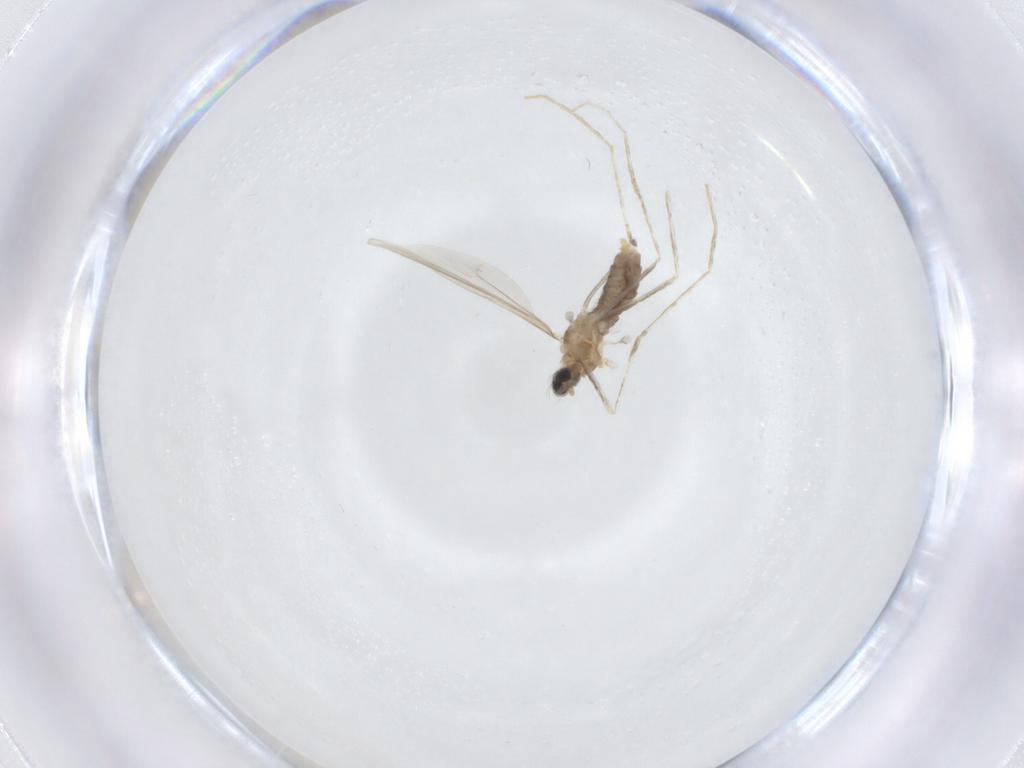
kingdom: Animalia
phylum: Arthropoda
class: Insecta
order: Diptera
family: Cecidomyiidae
